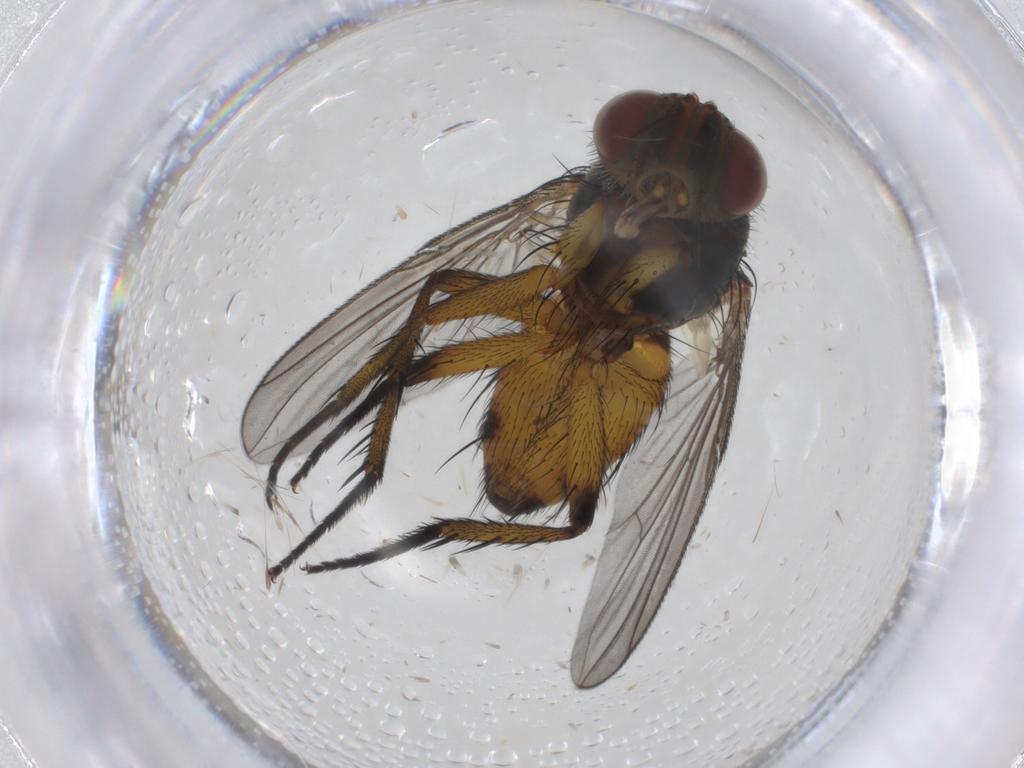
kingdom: Animalia
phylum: Arthropoda
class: Insecta
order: Diptera
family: Tachinidae
